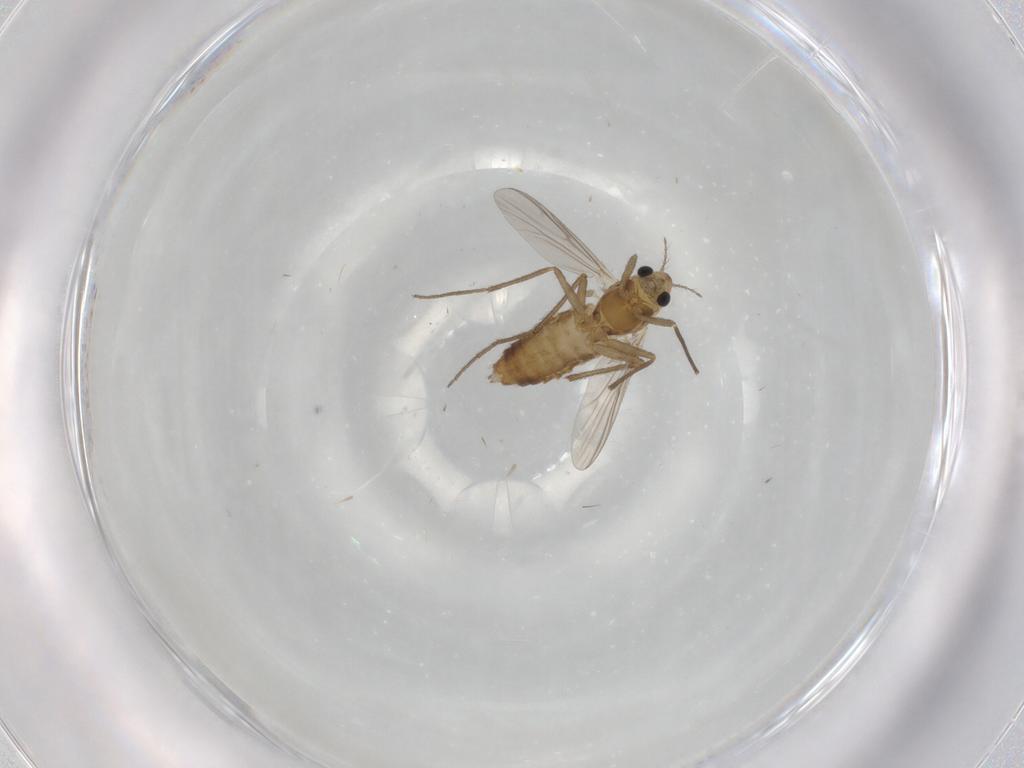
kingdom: Animalia
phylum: Arthropoda
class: Insecta
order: Diptera
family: Chironomidae
